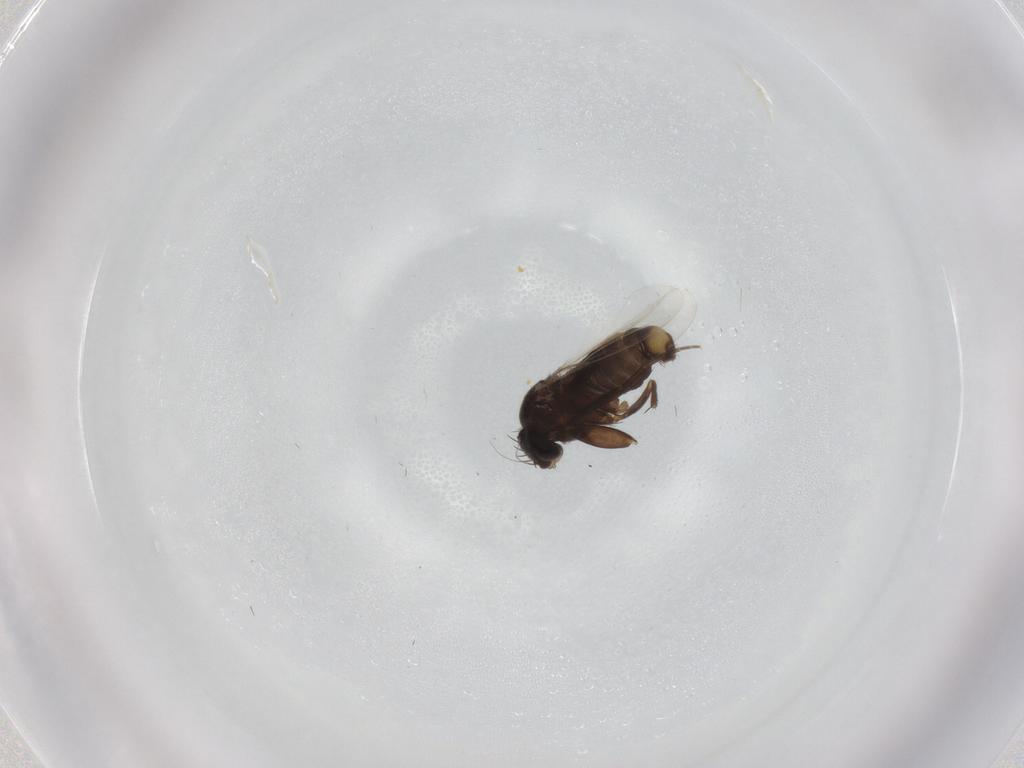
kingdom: Animalia
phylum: Arthropoda
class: Insecta
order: Diptera
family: Phoridae
